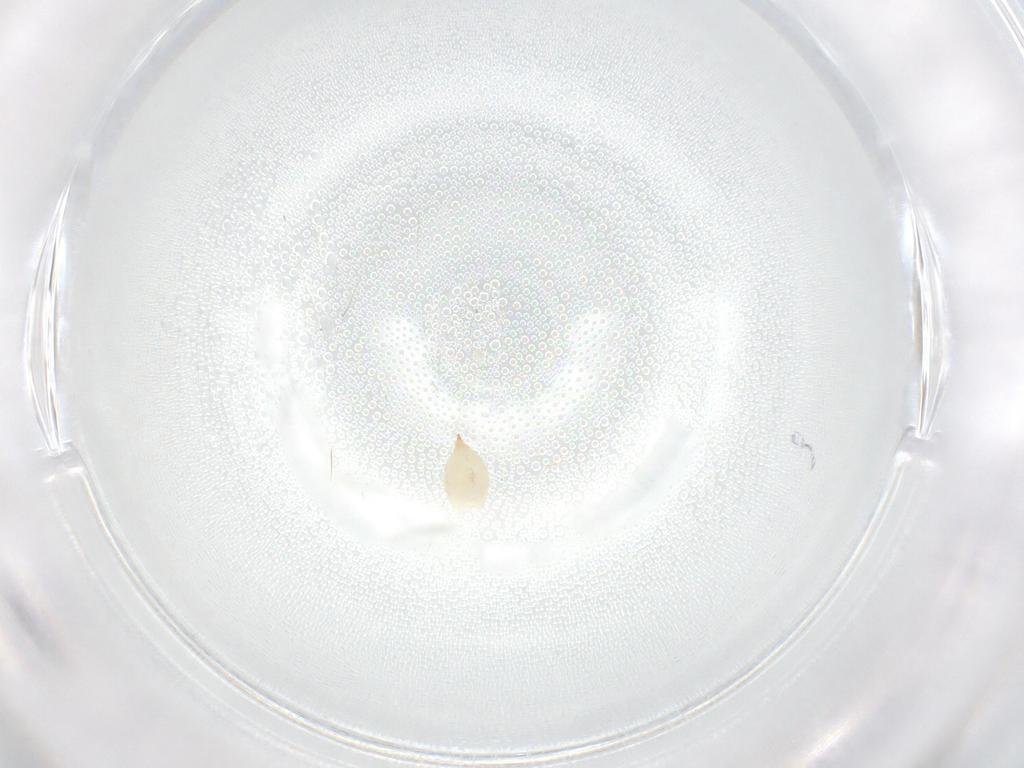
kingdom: Animalia
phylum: Arthropoda
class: Insecta
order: Diptera
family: Cecidomyiidae
